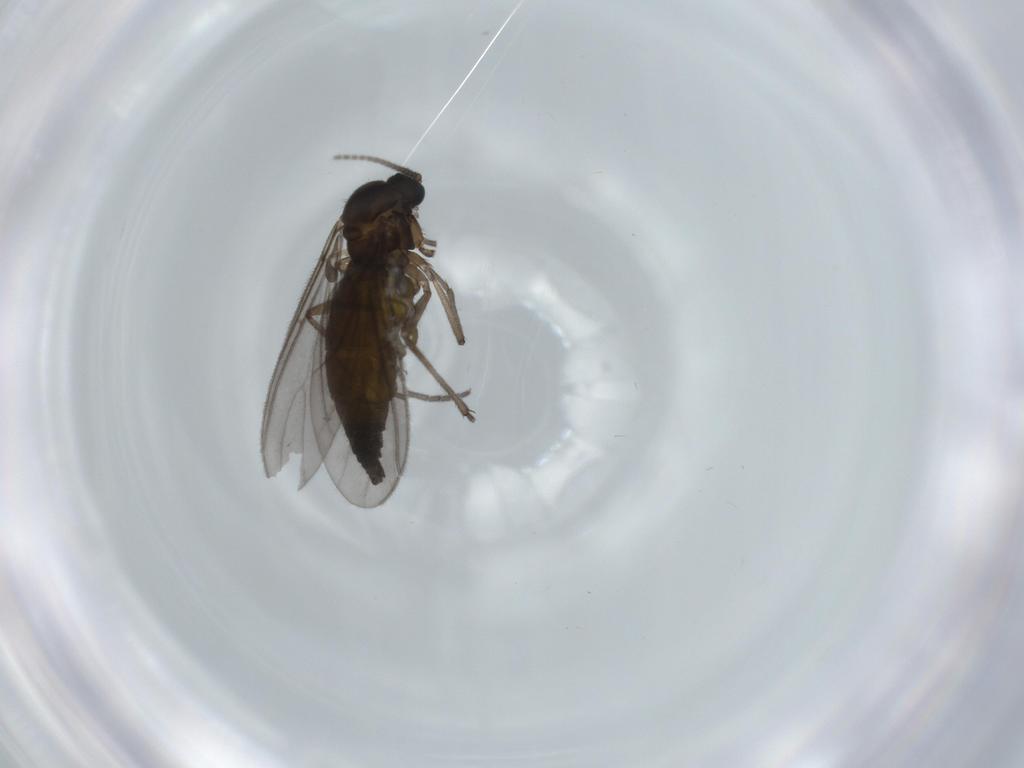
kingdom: Animalia
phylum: Arthropoda
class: Insecta
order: Diptera
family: Sciaridae
